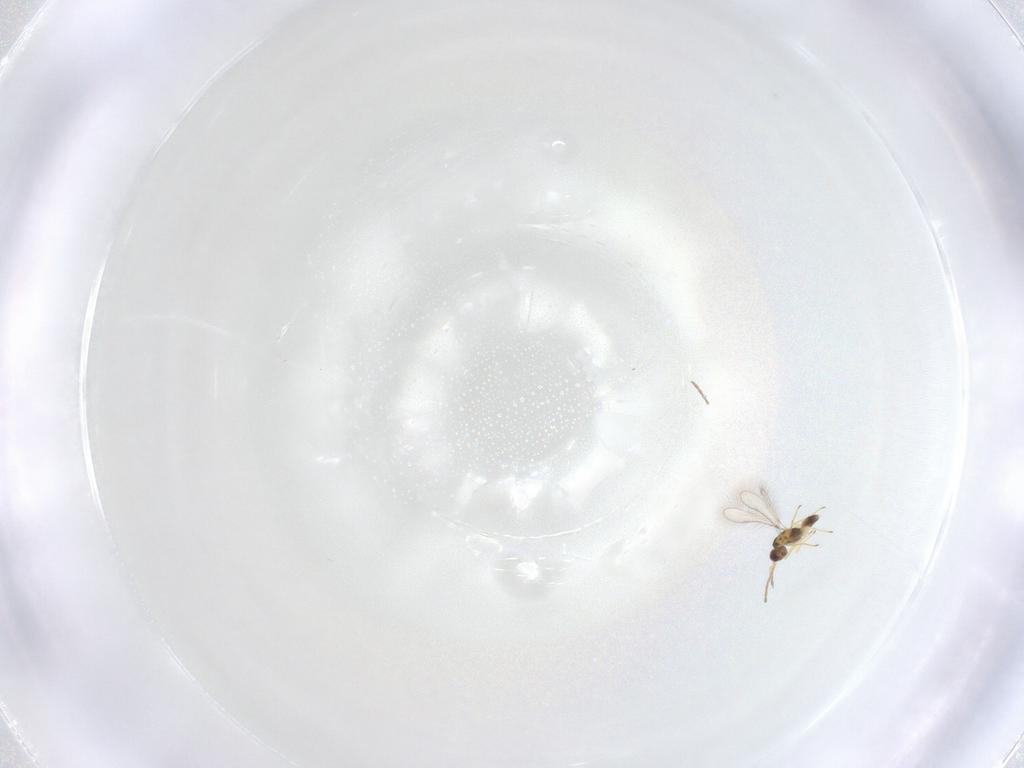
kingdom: Animalia
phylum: Arthropoda
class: Insecta
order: Hymenoptera
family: Mymaridae
